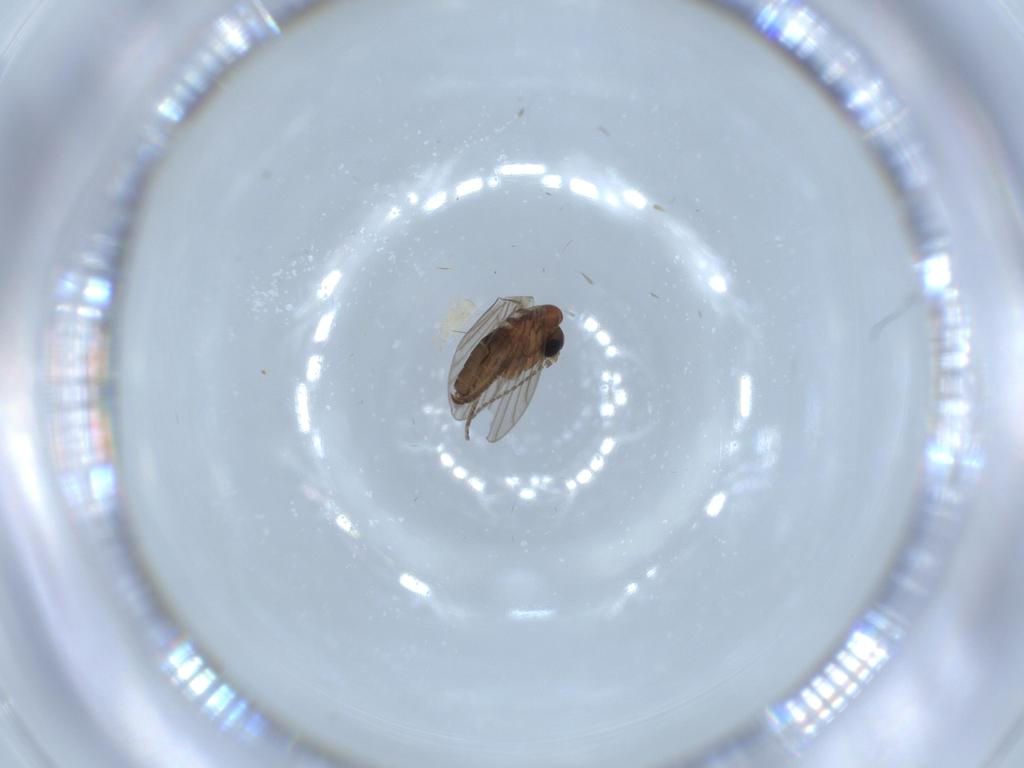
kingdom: Animalia
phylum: Arthropoda
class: Insecta
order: Diptera
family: Psychodidae
